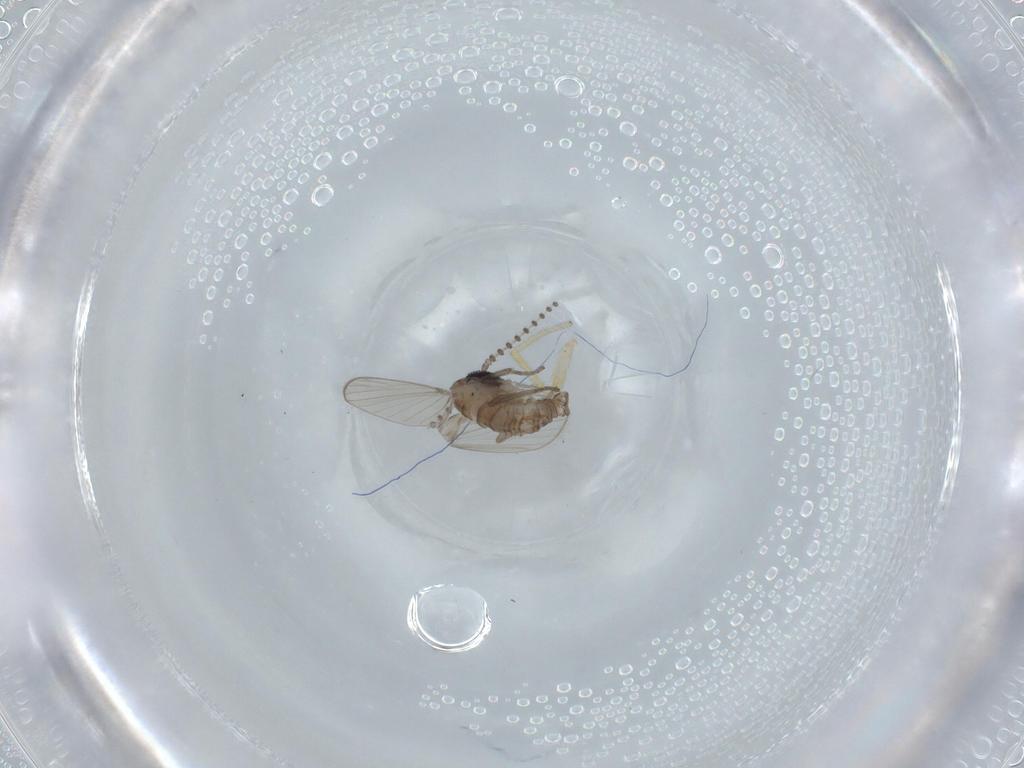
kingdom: Animalia
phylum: Arthropoda
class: Insecta
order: Diptera
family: Psychodidae
